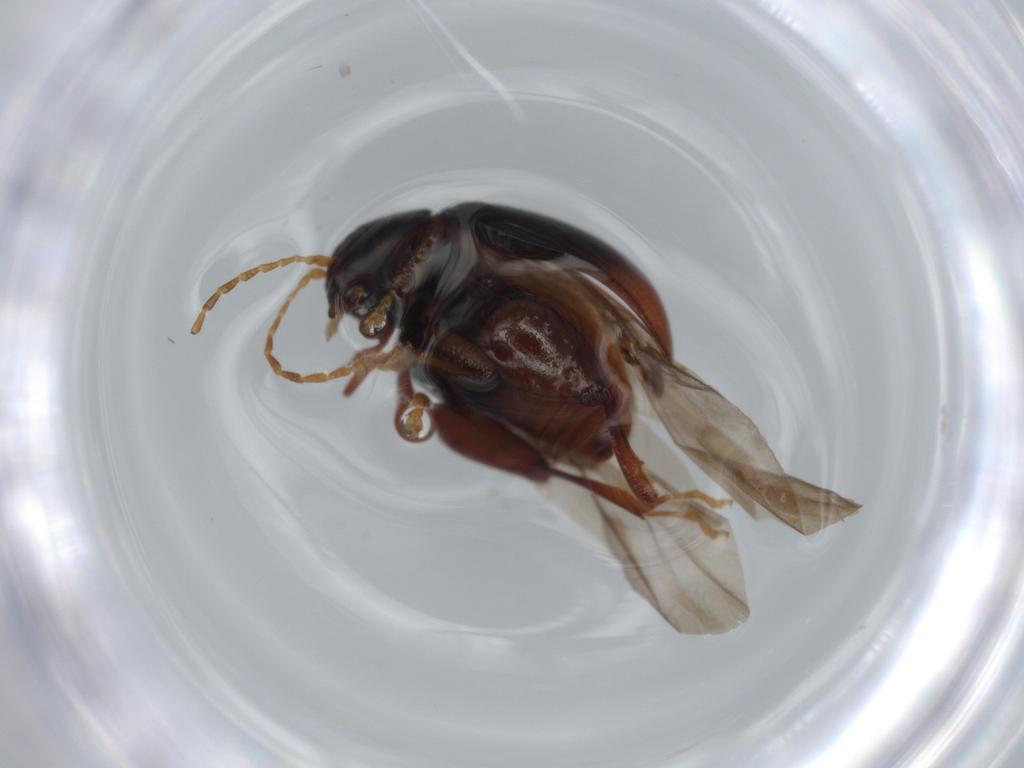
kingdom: Animalia
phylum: Arthropoda
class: Insecta
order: Coleoptera
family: Chrysomelidae
